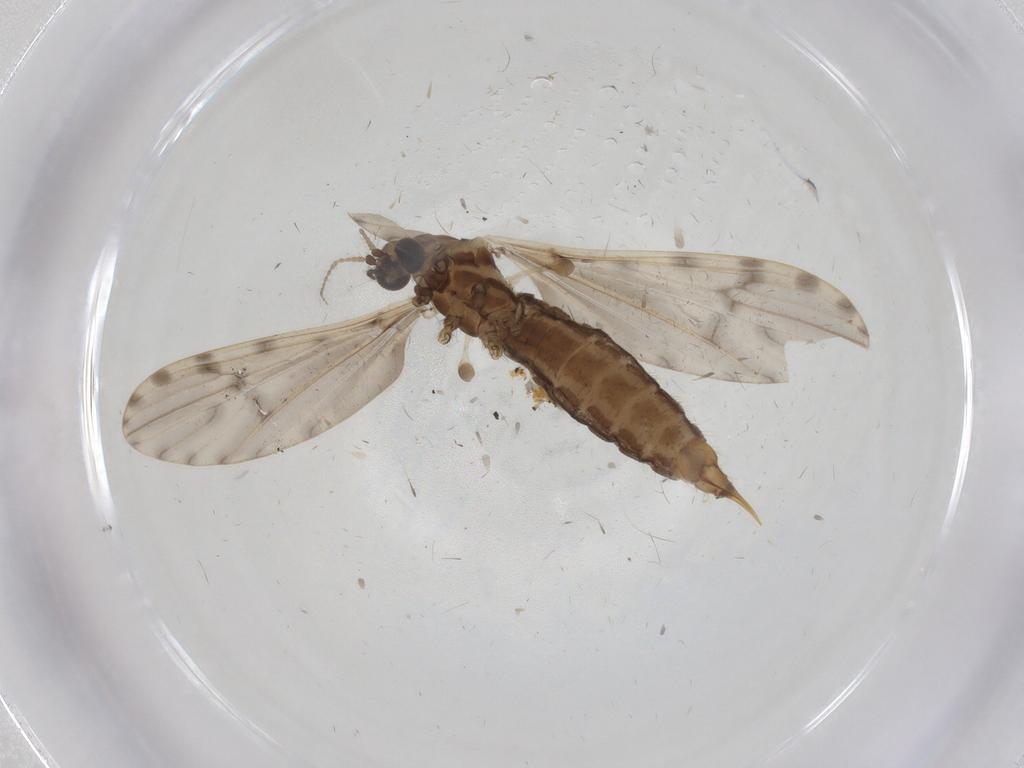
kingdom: Animalia
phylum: Arthropoda
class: Insecta
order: Diptera
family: Limoniidae
